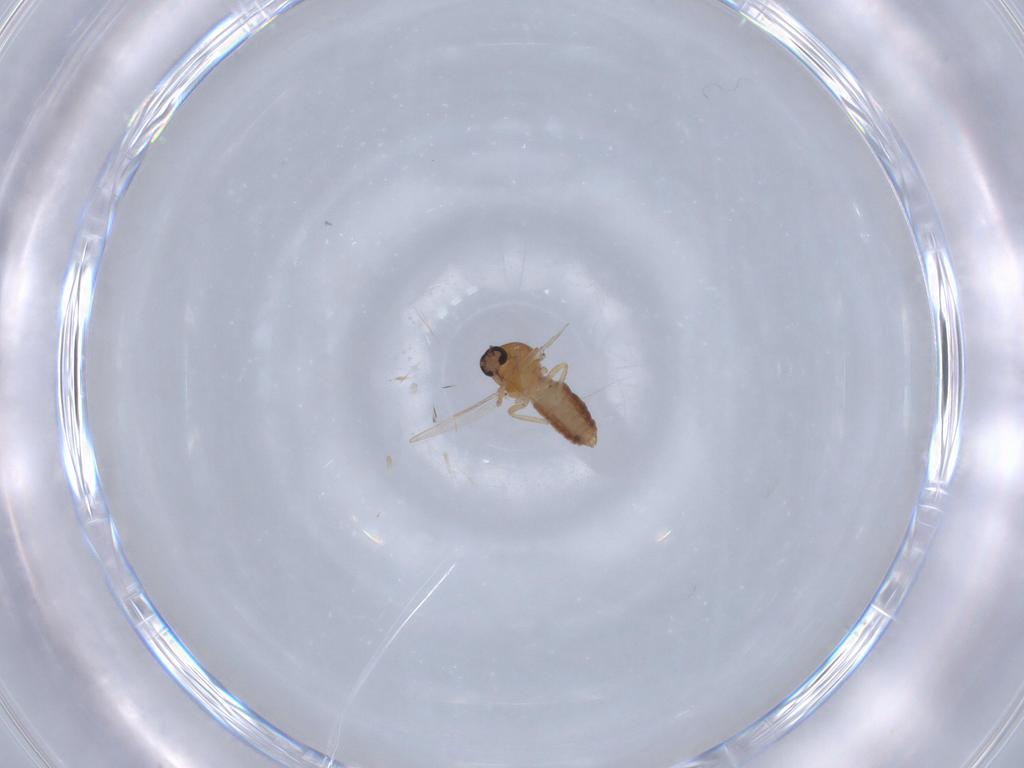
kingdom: Animalia
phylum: Arthropoda
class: Insecta
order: Diptera
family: Ceratopogonidae
